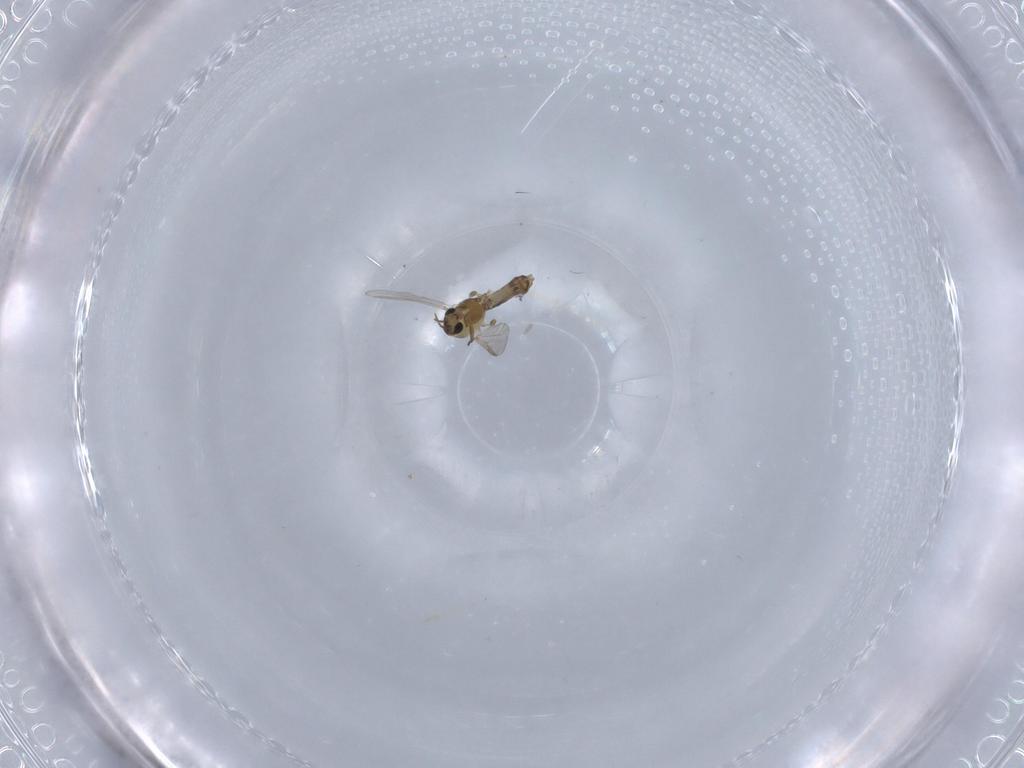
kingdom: Animalia
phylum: Arthropoda
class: Insecta
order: Diptera
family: Chironomidae
